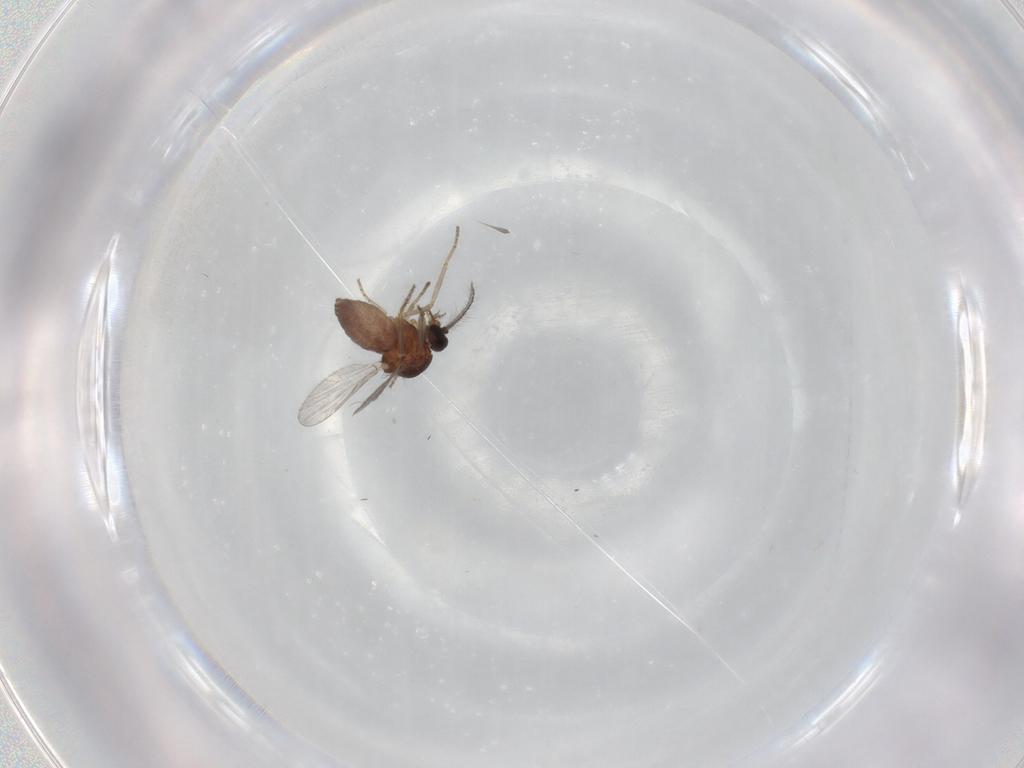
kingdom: Animalia
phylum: Arthropoda
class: Insecta
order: Diptera
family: Ceratopogonidae
